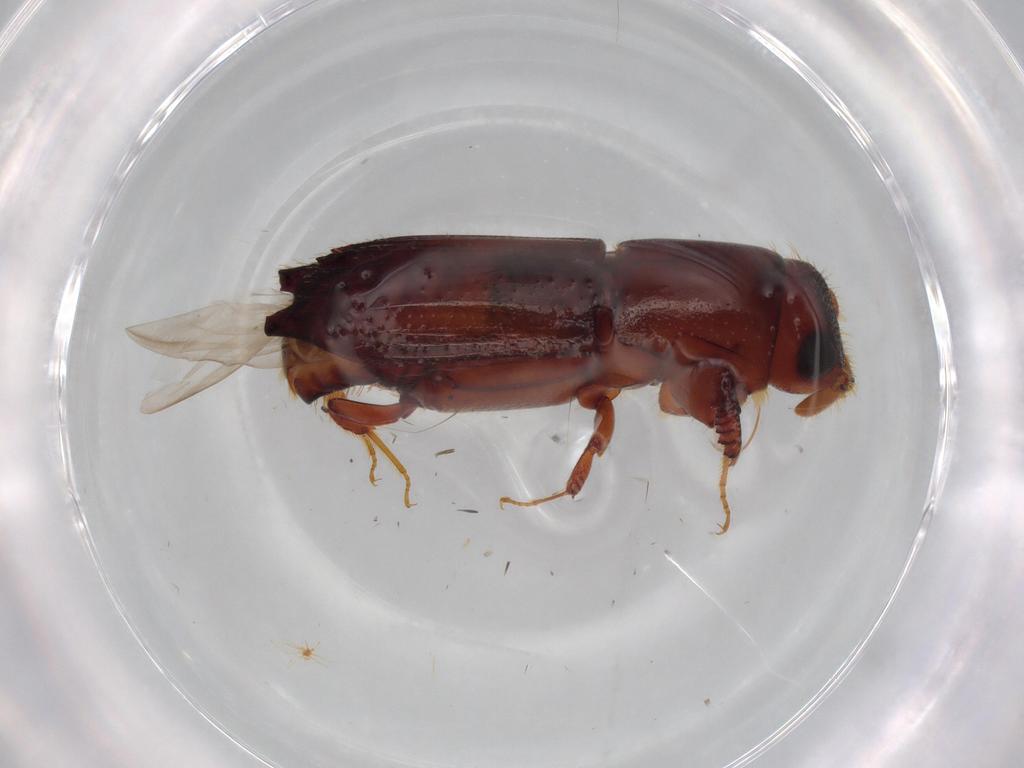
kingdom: Animalia
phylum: Arthropoda
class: Insecta
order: Coleoptera
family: Curculionidae
